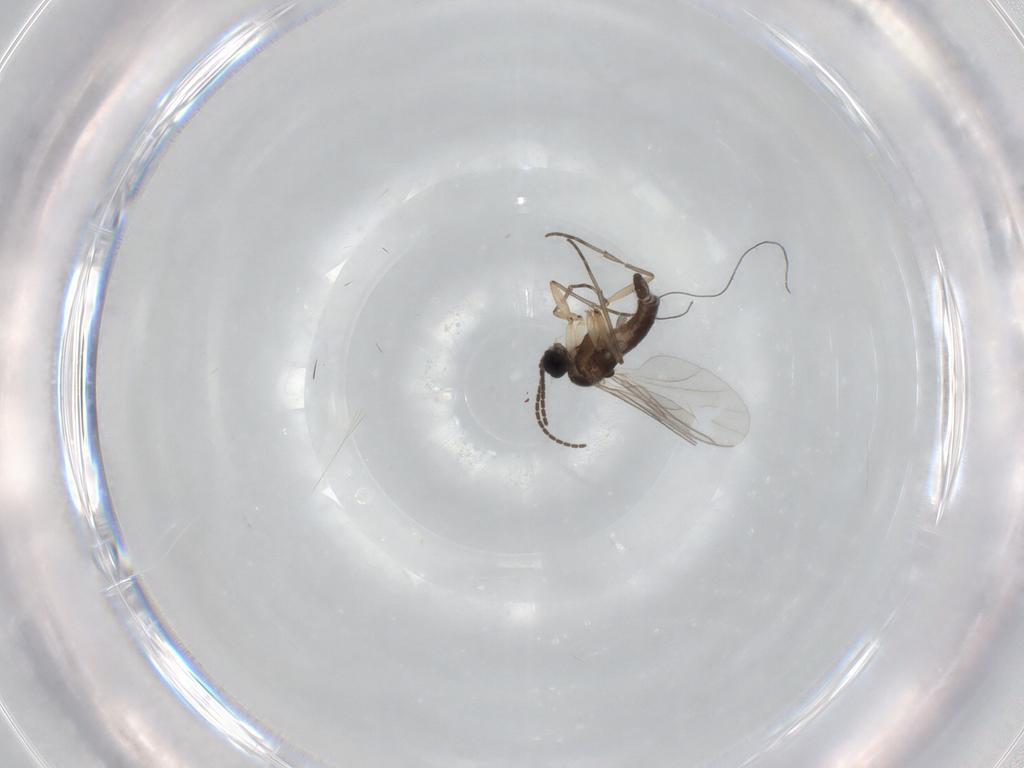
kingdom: Animalia
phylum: Arthropoda
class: Insecta
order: Diptera
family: Sciaridae
